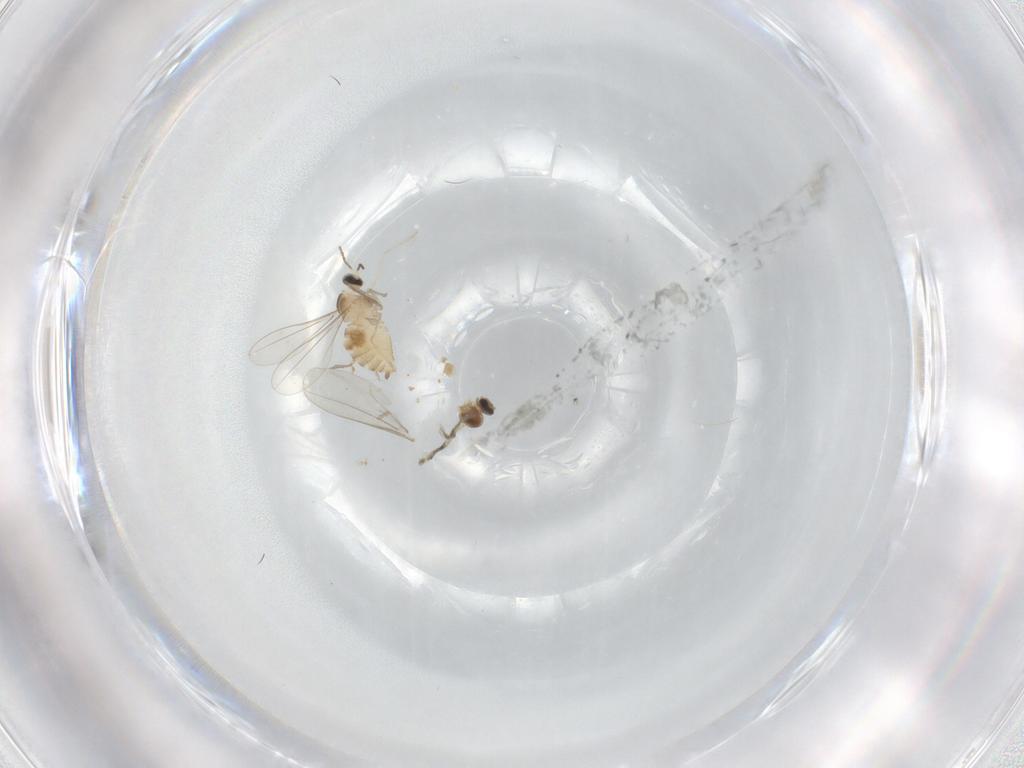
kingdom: Animalia
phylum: Arthropoda
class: Insecta
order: Diptera
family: Cecidomyiidae
